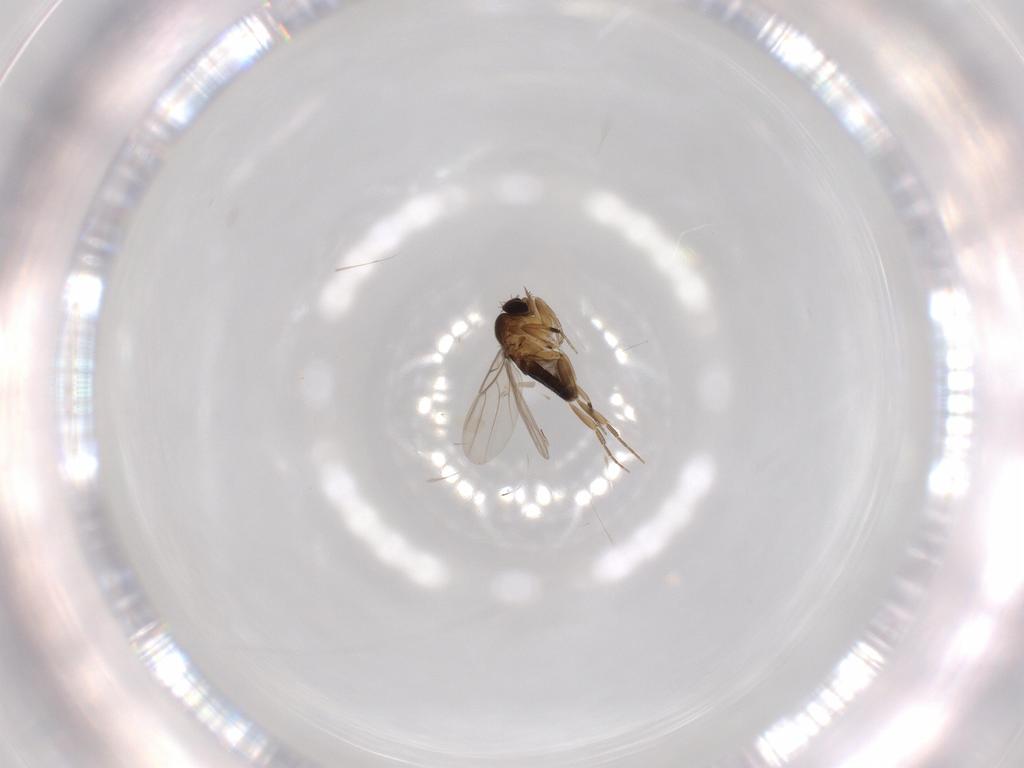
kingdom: Animalia
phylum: Arthropoda
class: Insecta
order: Diptera
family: Phoridae
